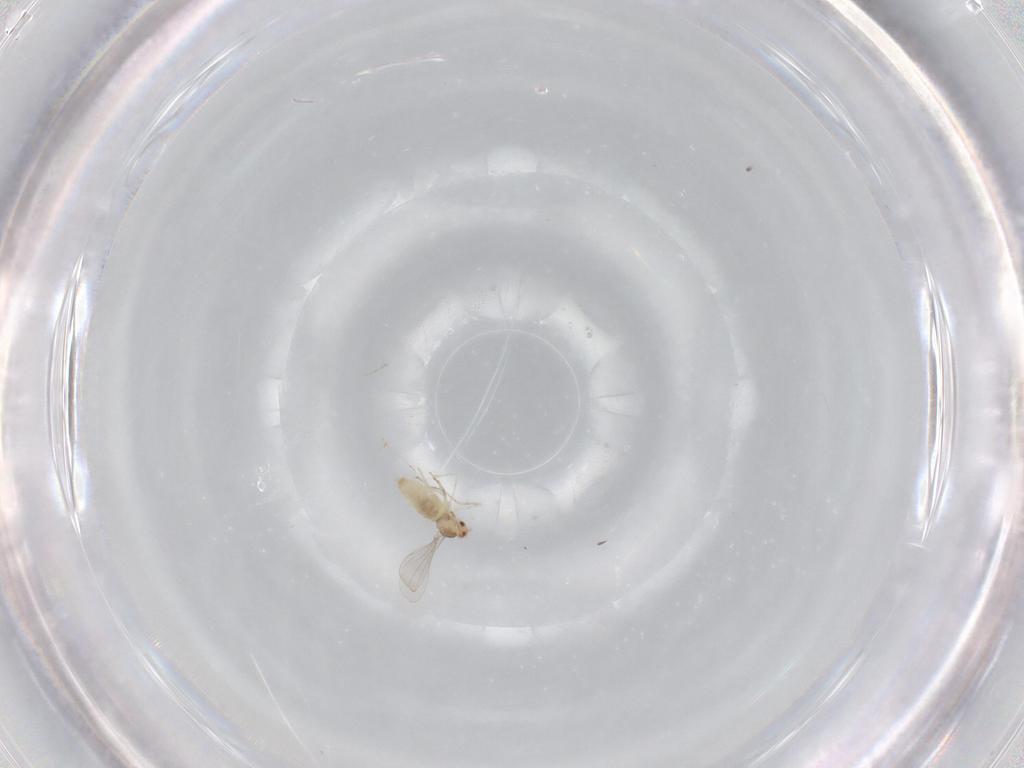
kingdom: Animalia
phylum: Arthropoda
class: Insecta
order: Diptera
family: Cecidomyiidae
